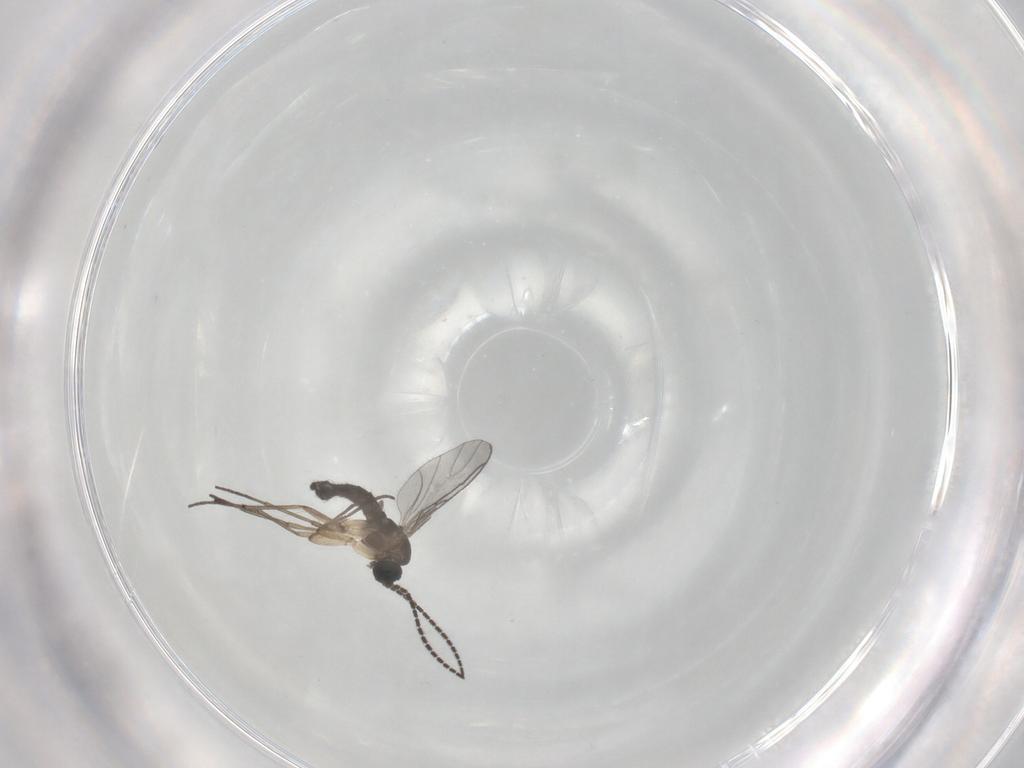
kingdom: Animalia
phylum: Arthropoda
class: Insecta
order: Diptera
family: Sciaridae
